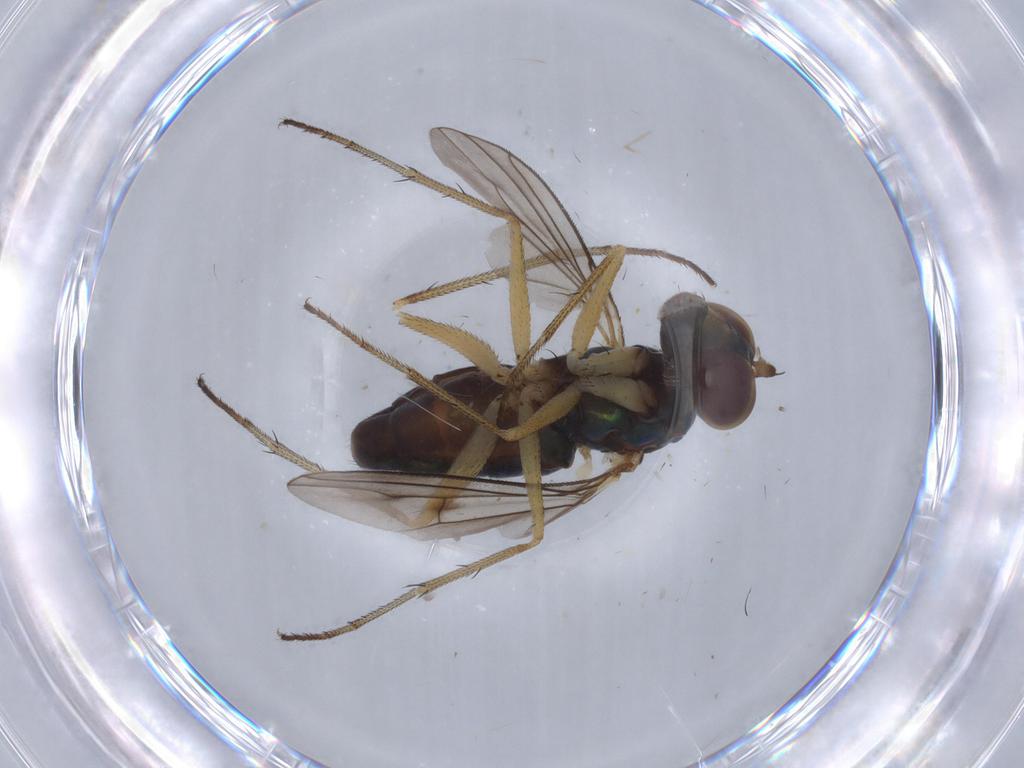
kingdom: Animalia
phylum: Arthropoda
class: Insecta
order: Diptera
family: Dolichopodidae
